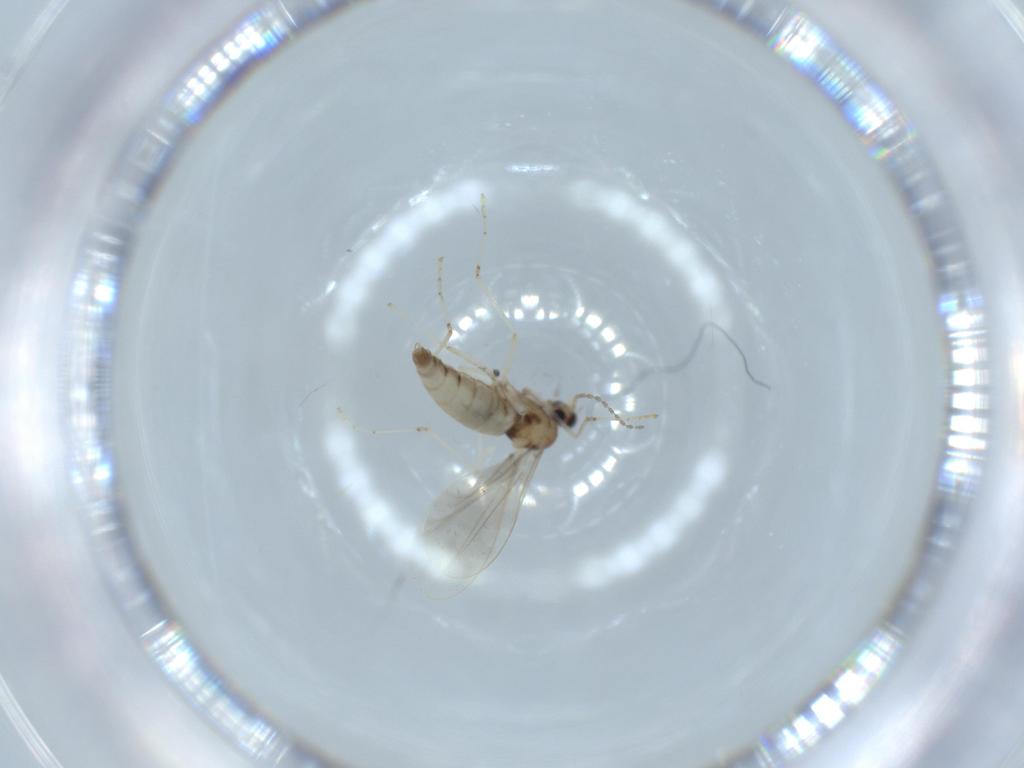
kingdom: Animalia
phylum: Arthropoda
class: Insecta
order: Diptera
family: Cecidomyiidae
